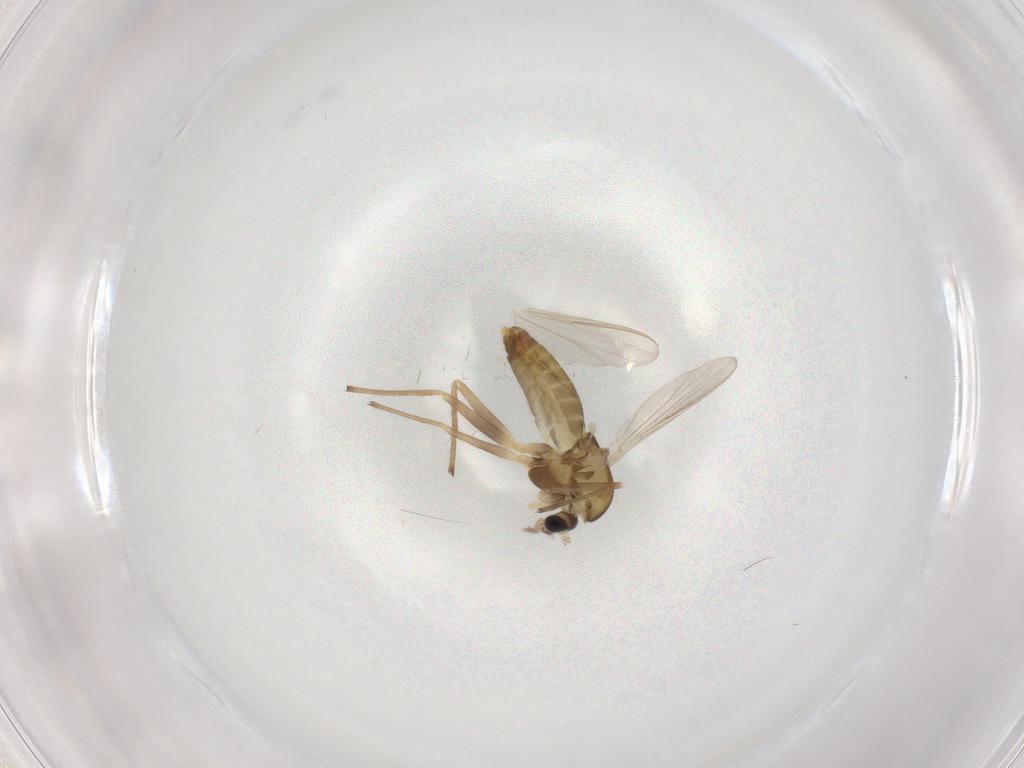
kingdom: Animalia
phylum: Arthropoda
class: Insecta
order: Diptera
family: Chironomidae
